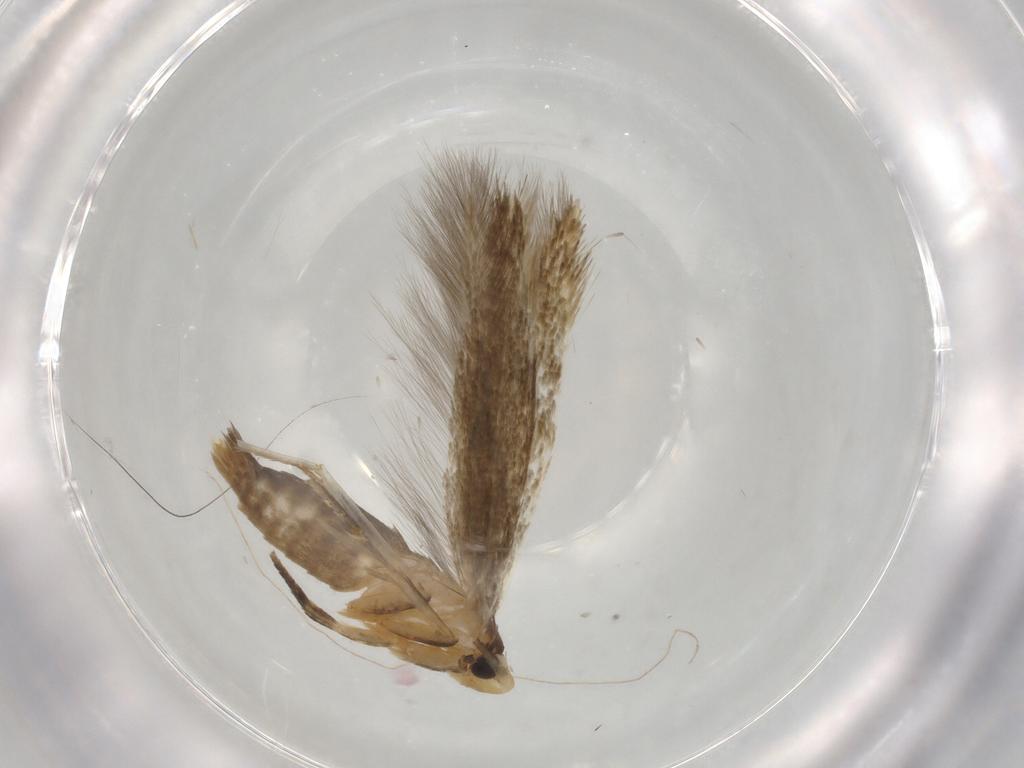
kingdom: Animalia
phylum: Arthropoda
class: Insecta
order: Lepidoptera
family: Tineidae
